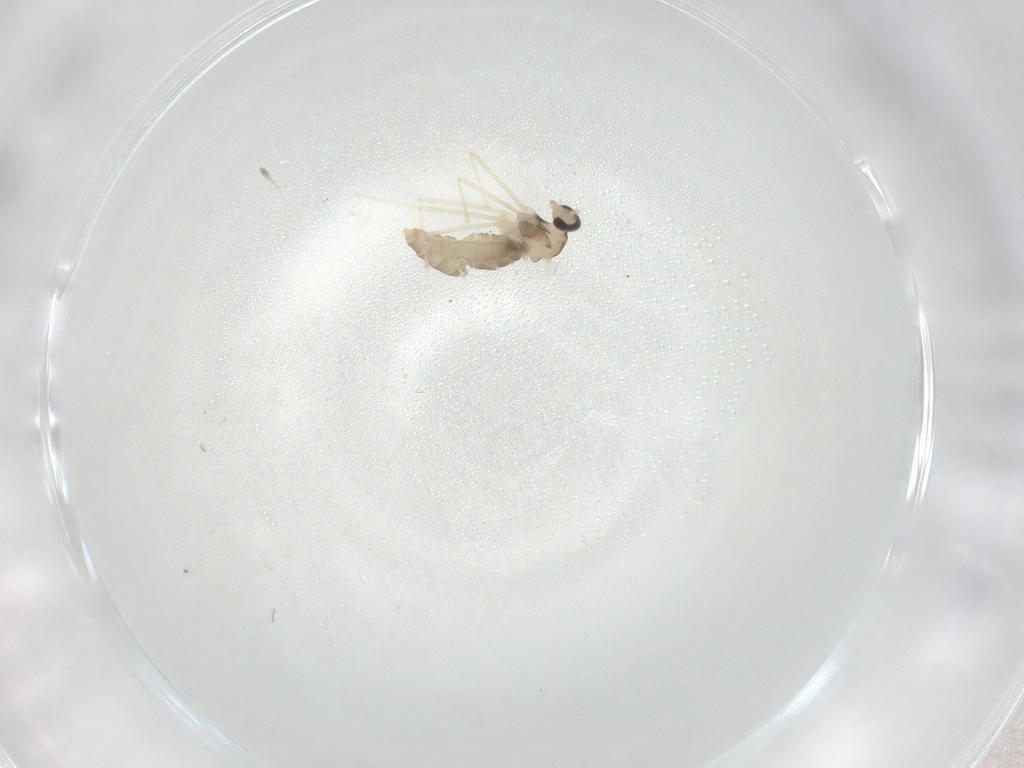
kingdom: Animalia
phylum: Arthropoda
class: Insecta
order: Diptera
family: Cecidomyiidae
